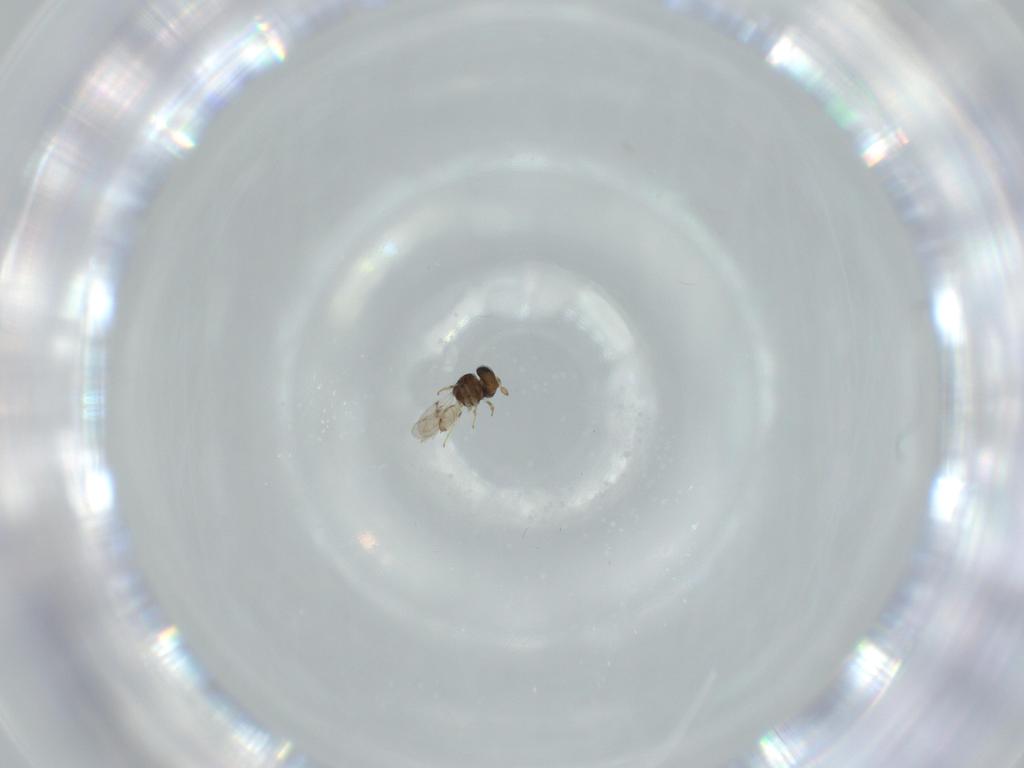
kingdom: Animalia
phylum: Arthropoda
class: Insecta
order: Hymenoptera
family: Scelionidae
